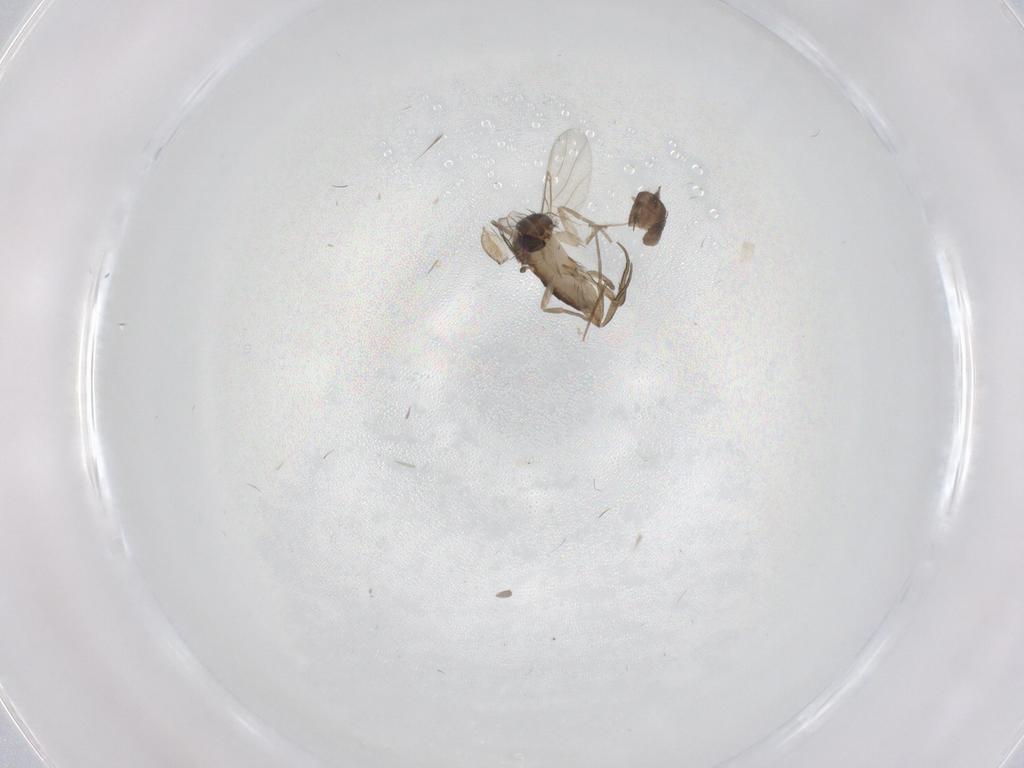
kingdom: Animalia
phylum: Arthropoda
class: Insecta
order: Diptera
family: Phoridae
